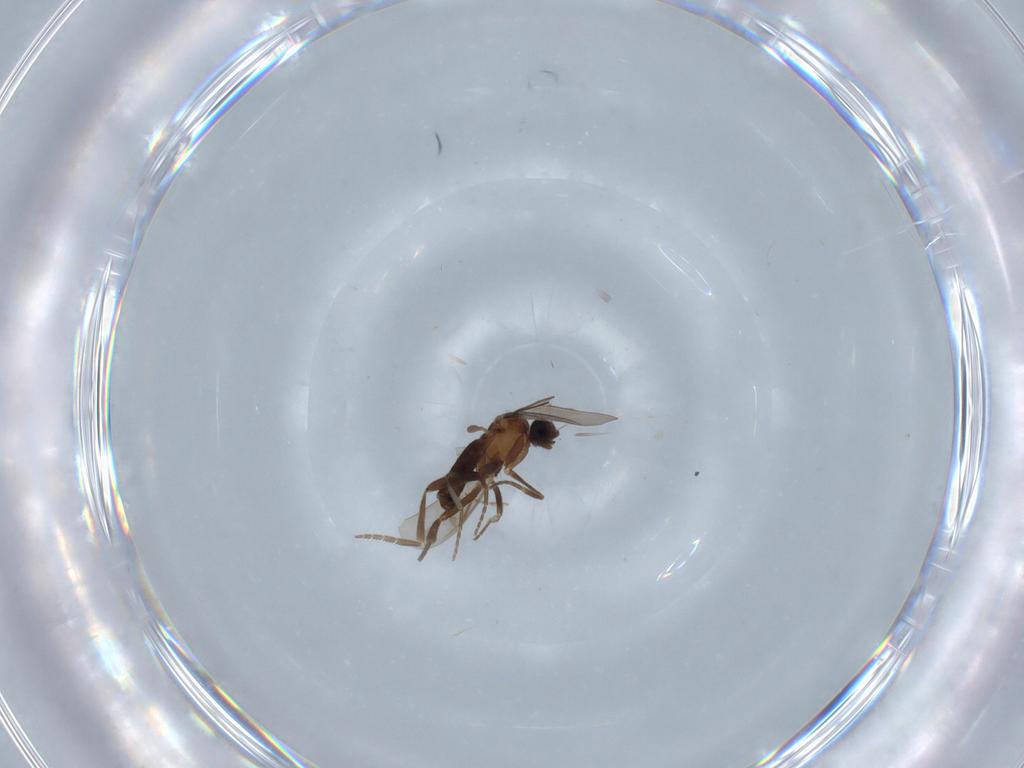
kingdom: Animalia
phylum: Arthropoda
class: Insecta
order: Diptera
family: Phoridae
